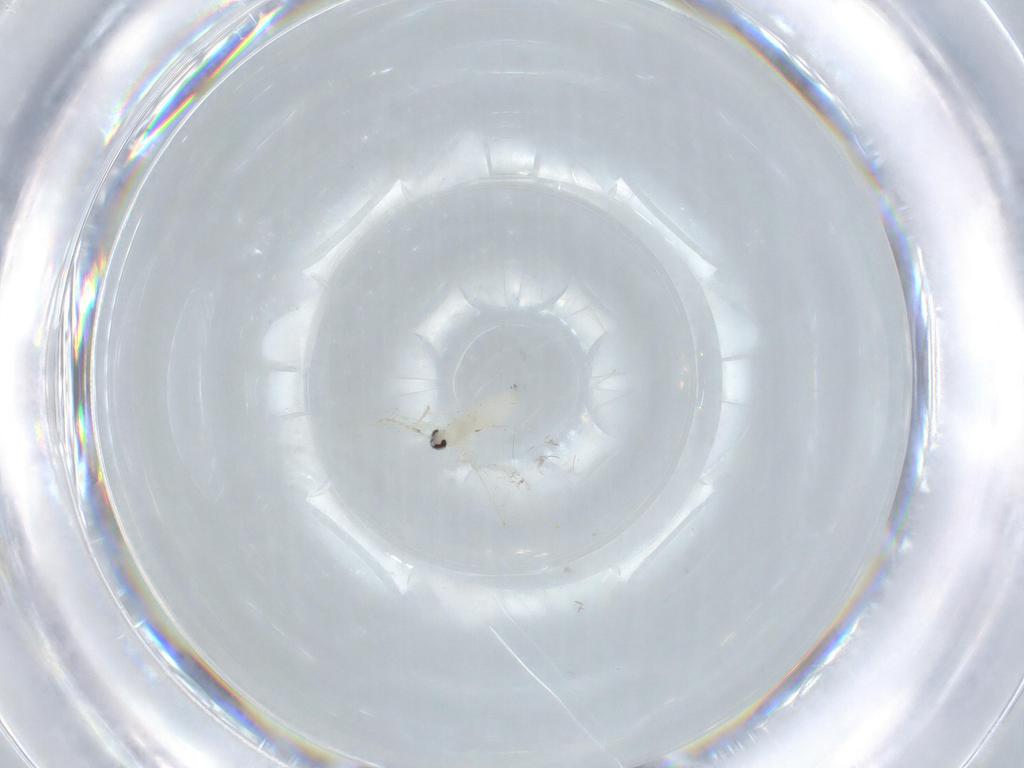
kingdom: Animalia
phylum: Arthropoda
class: Insecta
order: Diptera
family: Cecidomyiidae
